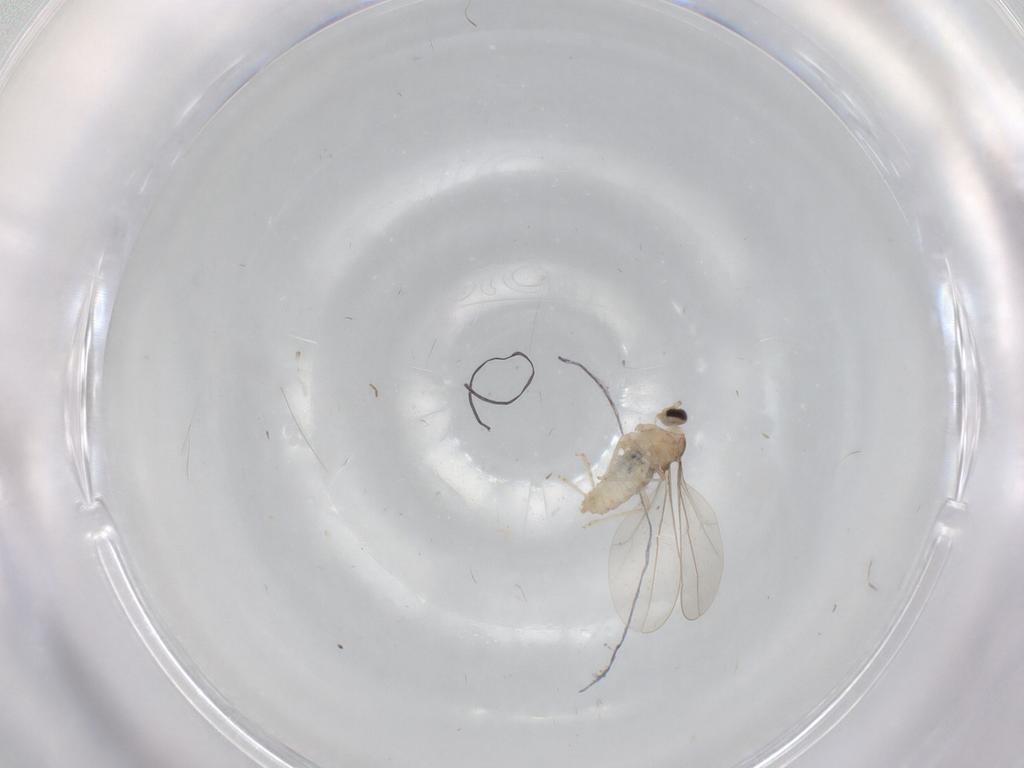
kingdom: Animalia
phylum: Arthropoda
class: Insecta
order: Diptera
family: Cecidomyiidae
